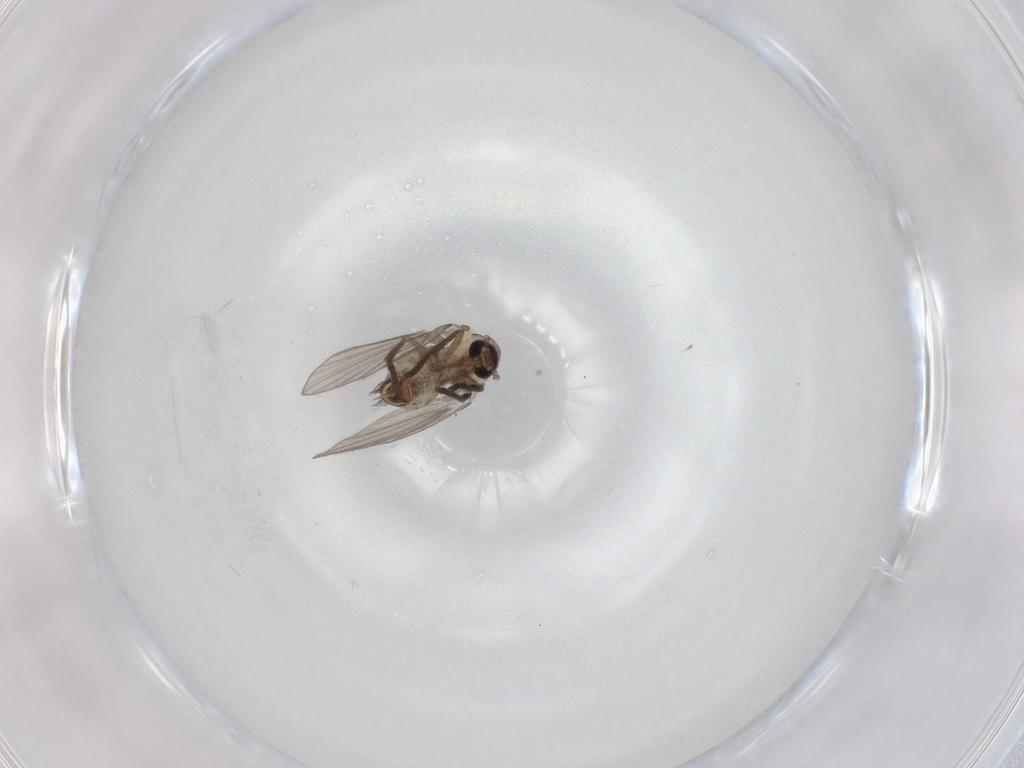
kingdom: Animalia
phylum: Arthropoda
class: Insecta
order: Diptera
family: Psychodidae
